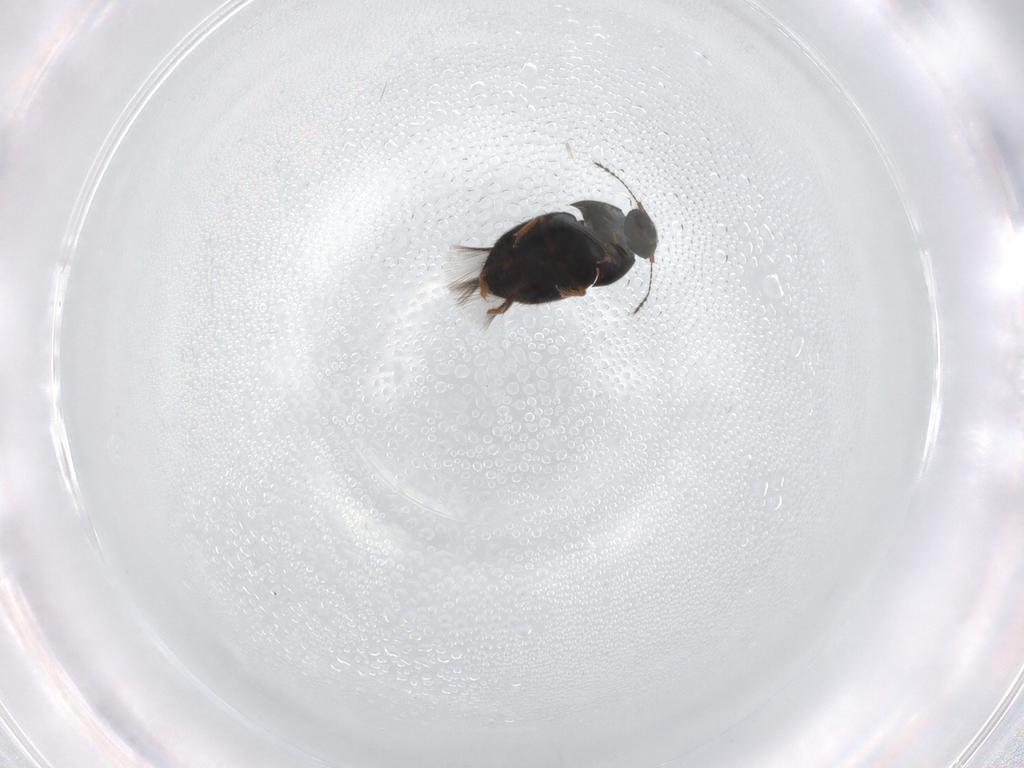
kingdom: Animalia
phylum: Arthropoda
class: Insecta
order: Coleoptera
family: Ptiliidae
